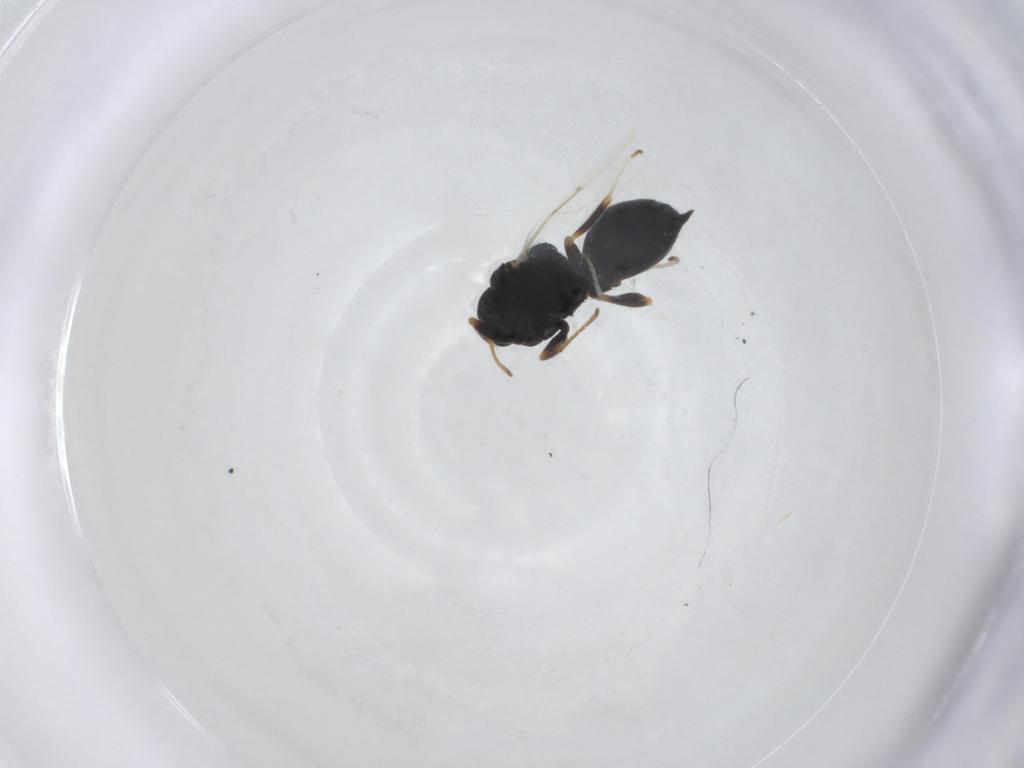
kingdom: Animalia
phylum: Arthropoda
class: Insecta
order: Hymenoptera
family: Eurytomidae
